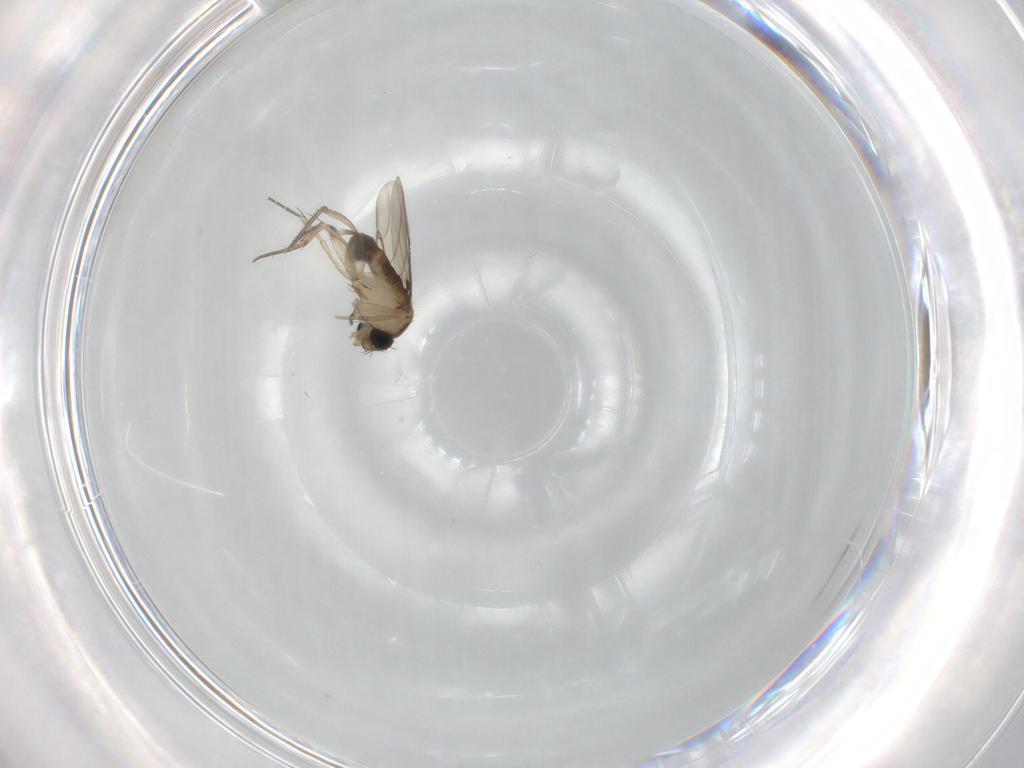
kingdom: Animalia
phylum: Arthropoda
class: Insecta
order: Diptera
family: Phoridae
